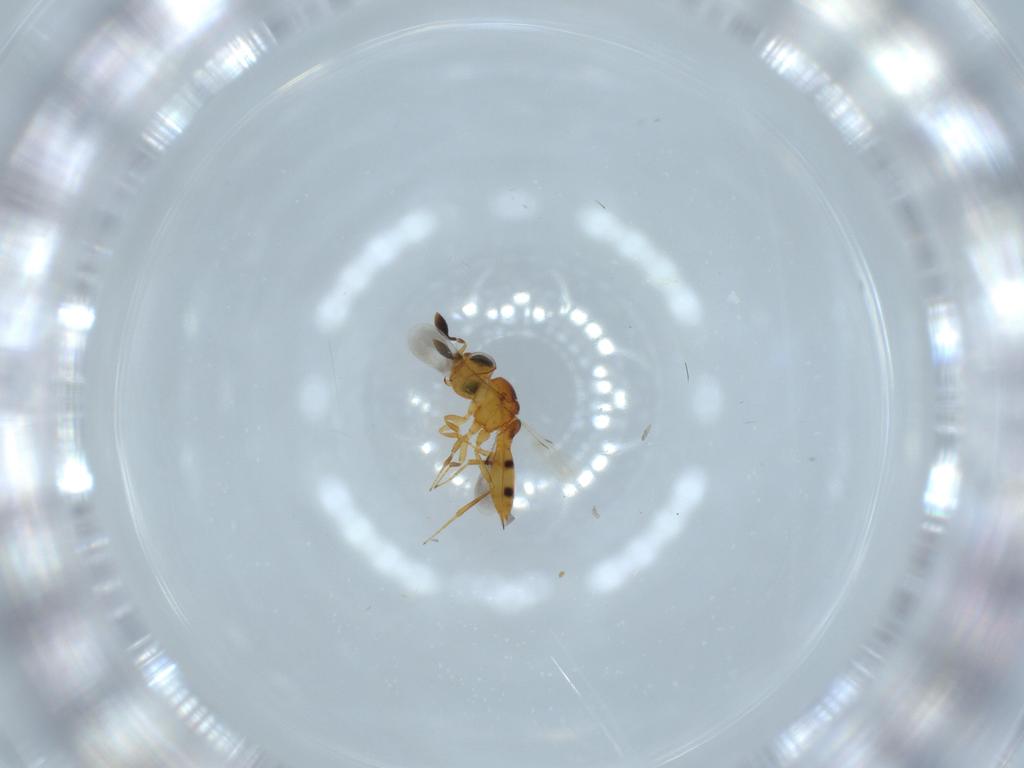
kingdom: Animalia
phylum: Arthropoda
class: Insecta
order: Hymenoptera
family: Scelionidae
